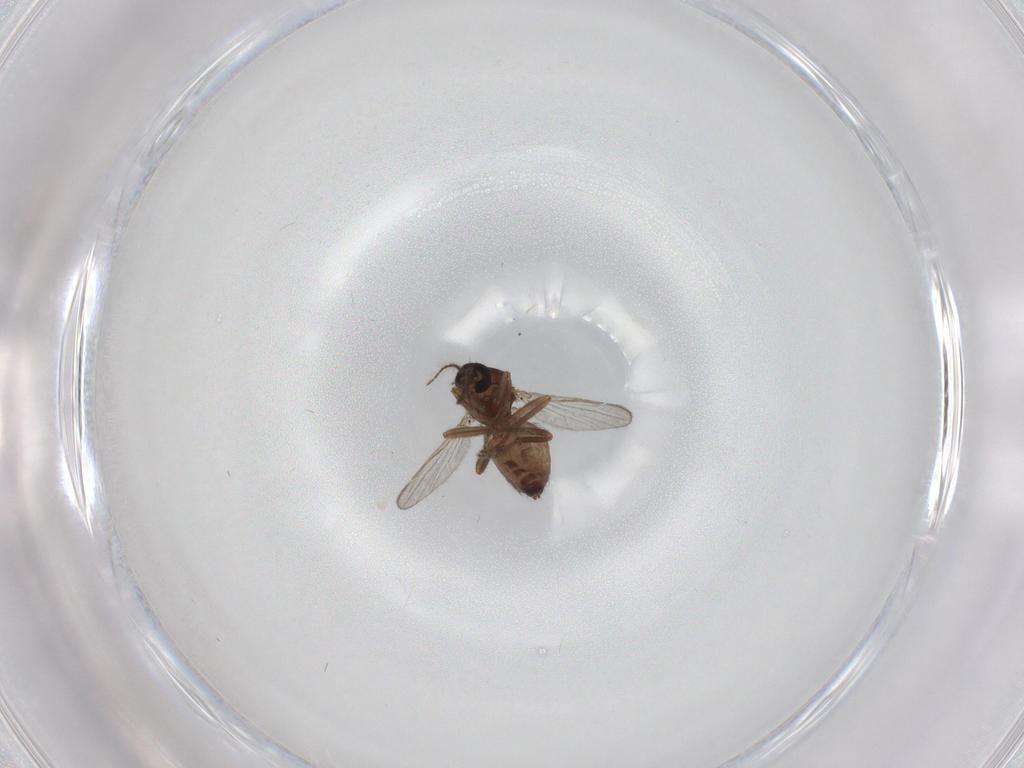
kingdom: Animalia
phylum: Arthropoda
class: Insecta
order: Diptera
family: Ceratopogonidae
